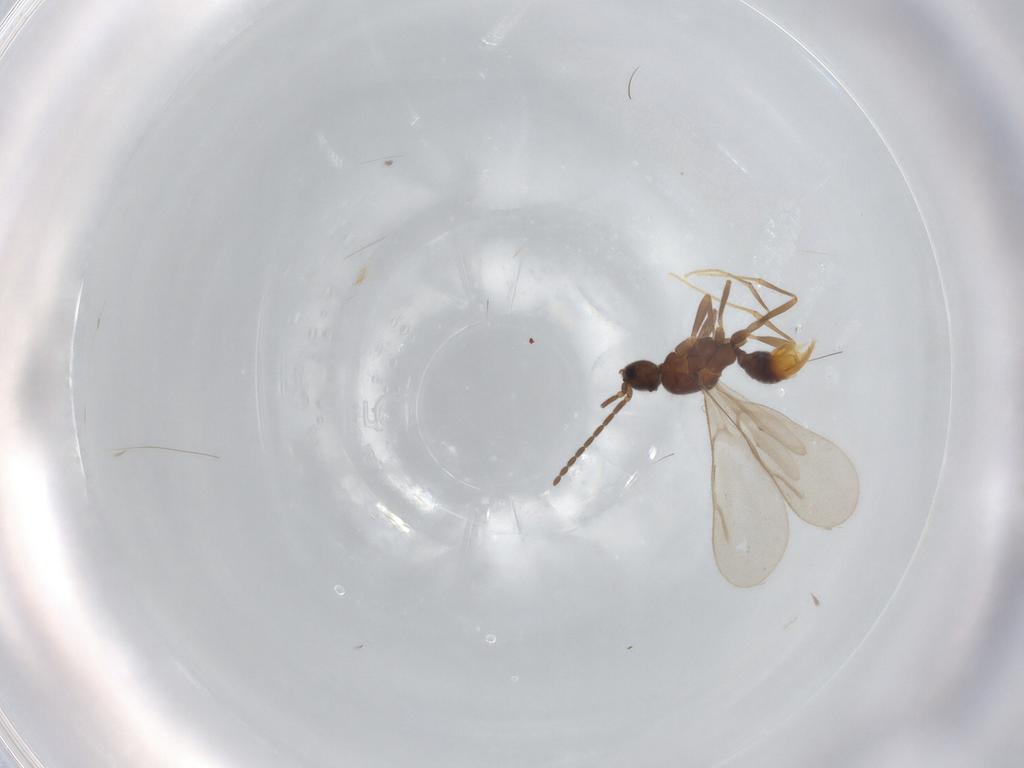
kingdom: Animalia
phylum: Arthropoda
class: Insecta
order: Hymenoptera
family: Formicidae
